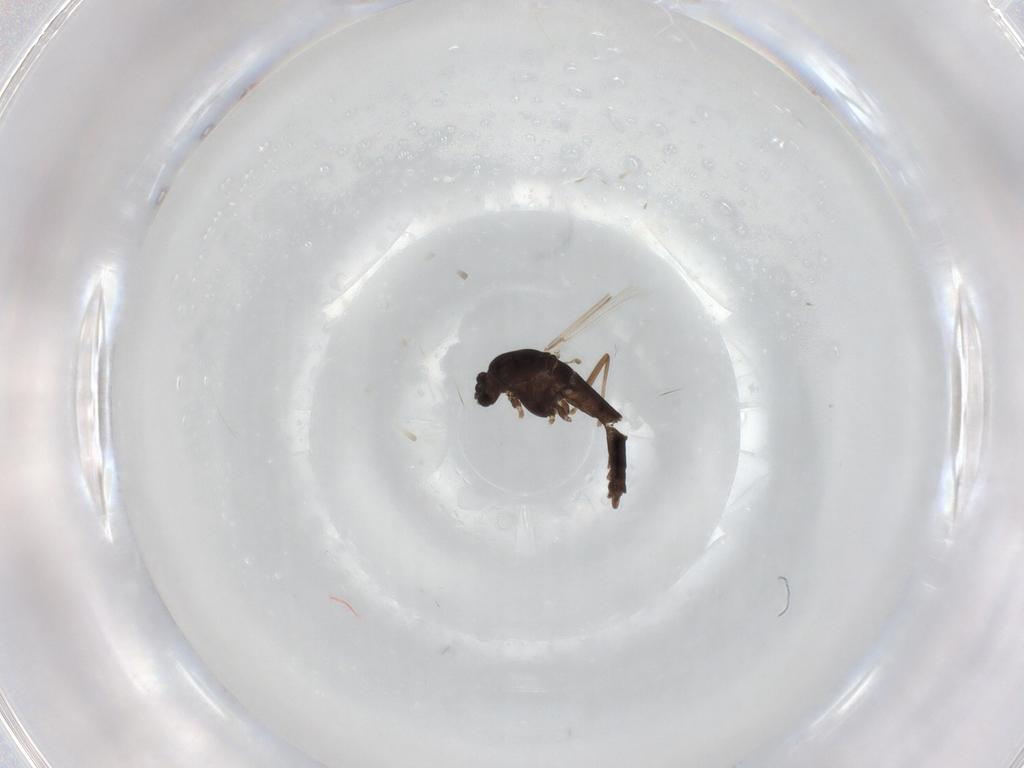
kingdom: Animalia
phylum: Arthropoda
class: Insecta
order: Diptera
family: Chironomidae
